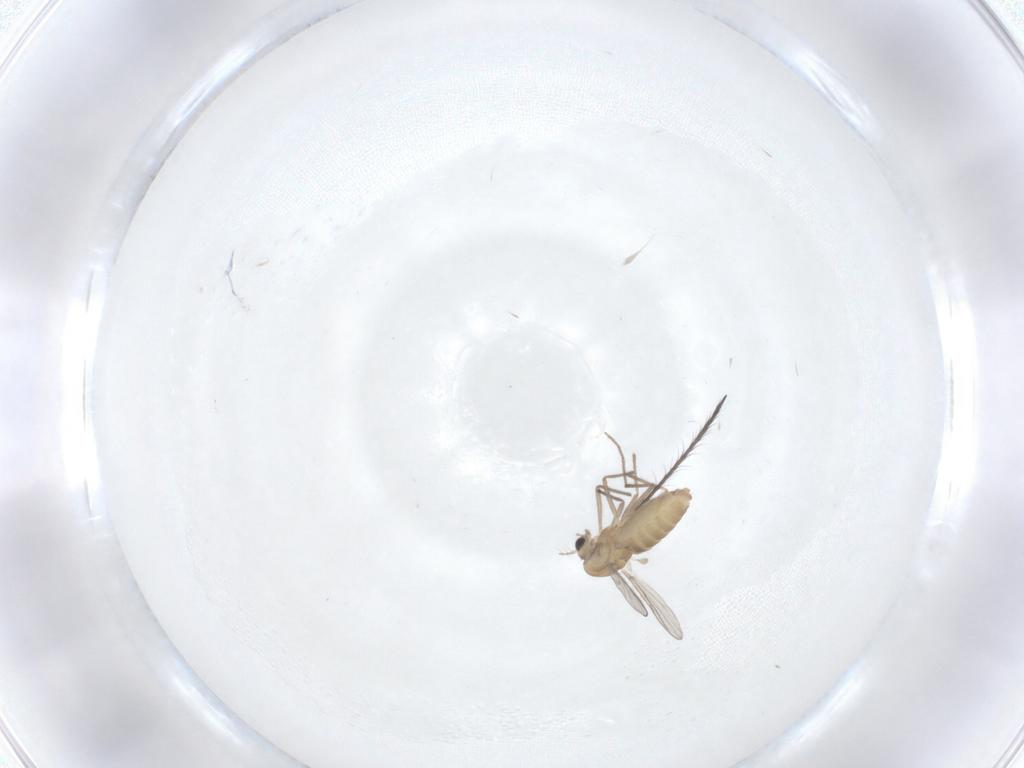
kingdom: Animalia
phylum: Arthropoda
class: Insecta
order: Diptera
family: Chironomidae
